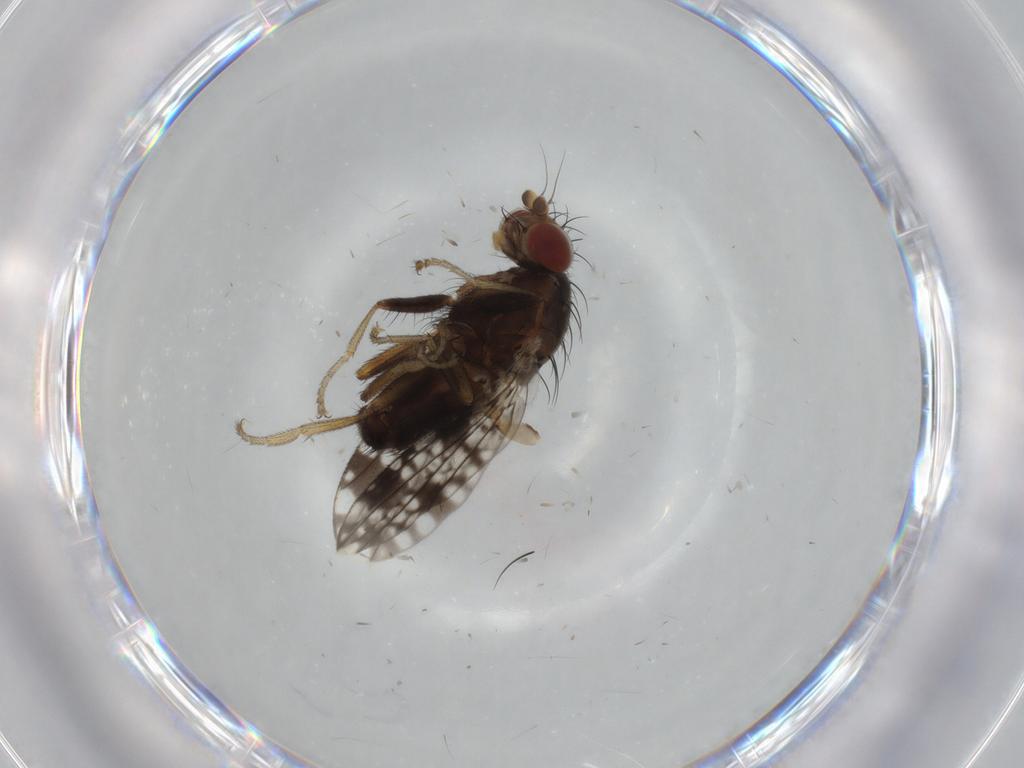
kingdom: Animalia
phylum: Arthropoda
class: Insecta
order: Diptera
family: Tephritidae
